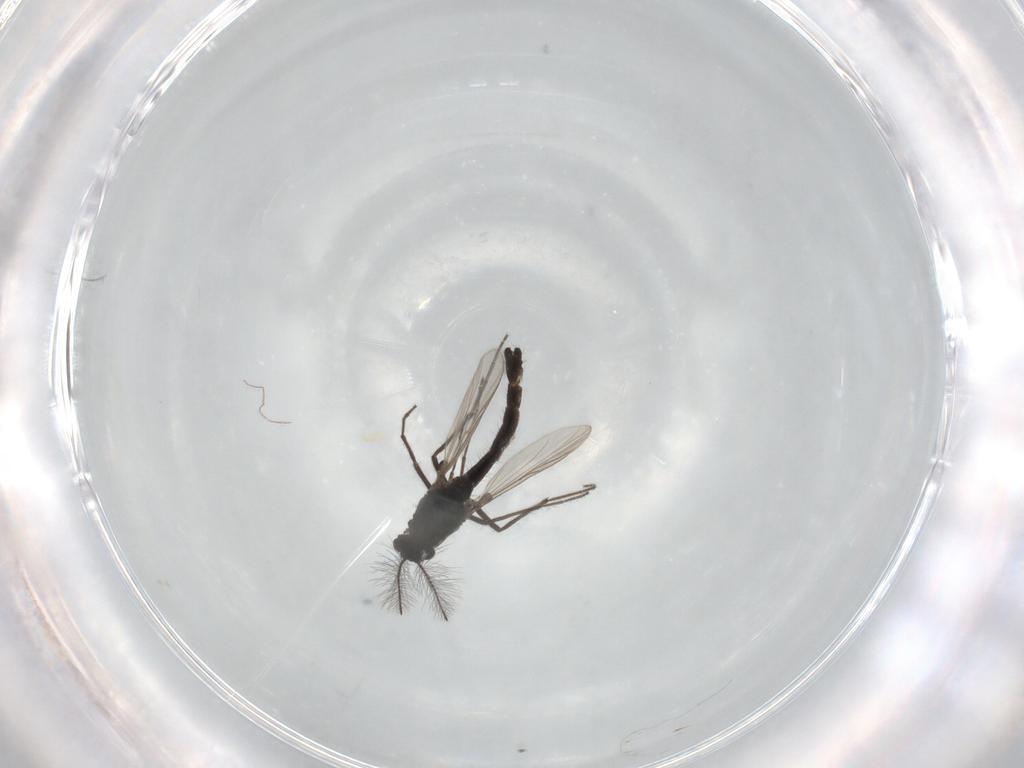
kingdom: Animalia
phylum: Arthropoda
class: Insecta
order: Diptera
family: Chironomidae
